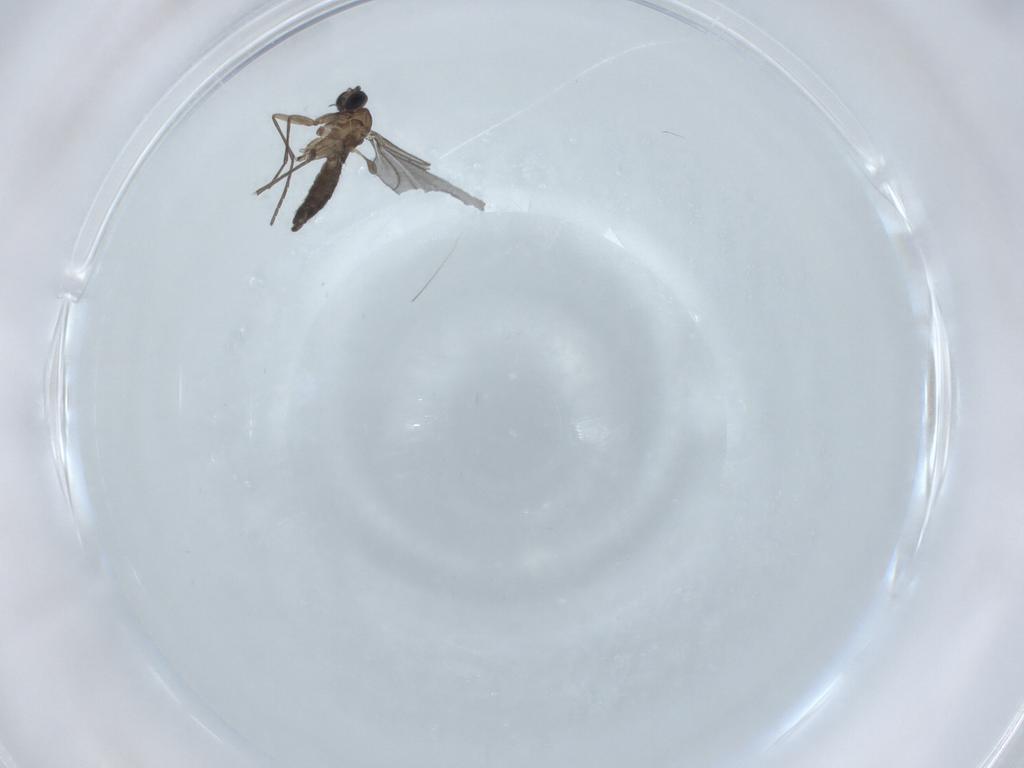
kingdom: Animalia
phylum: Arthropoda
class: Insecta
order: Diptera
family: Sciaridae
